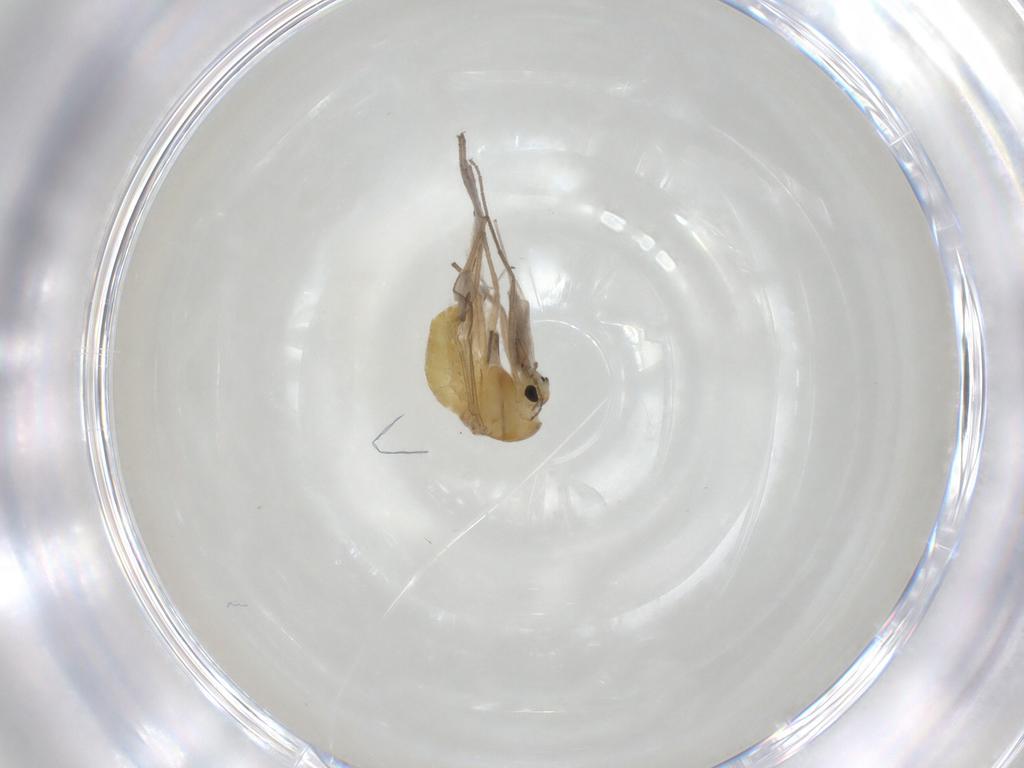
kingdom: Animalia
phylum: Arthropoda
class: Insecta
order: Diptera
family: Chironomidae
